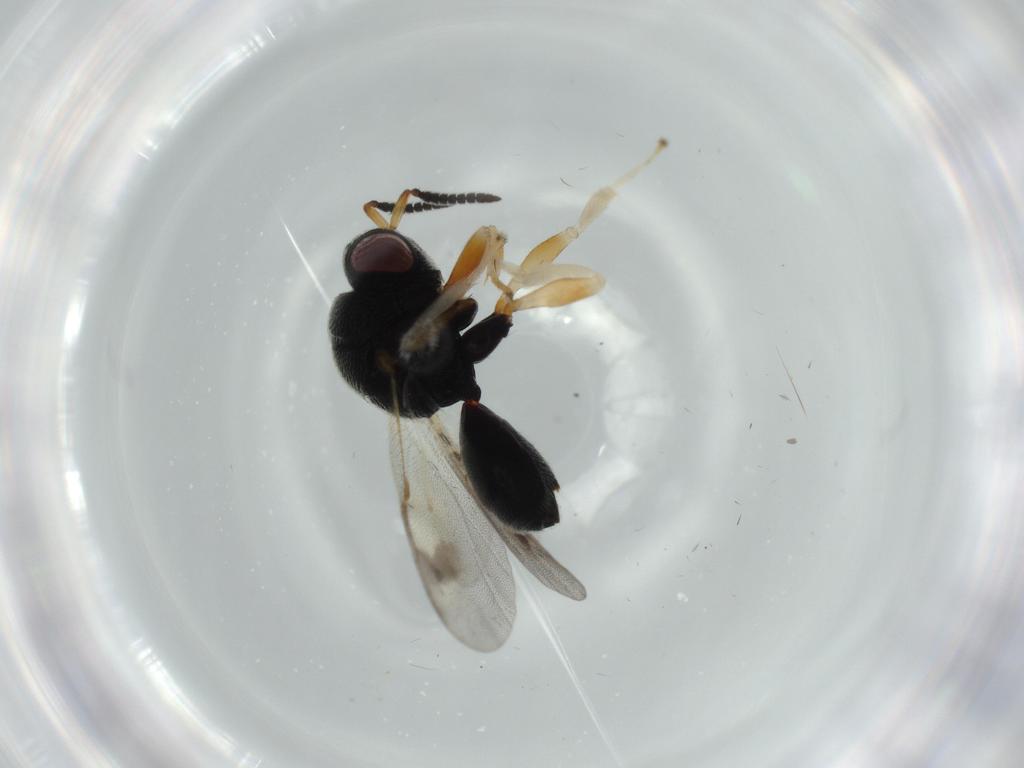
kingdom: Animalia
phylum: Arthropoda
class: Insecta
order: Hymenoptera
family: Eurytomidae
